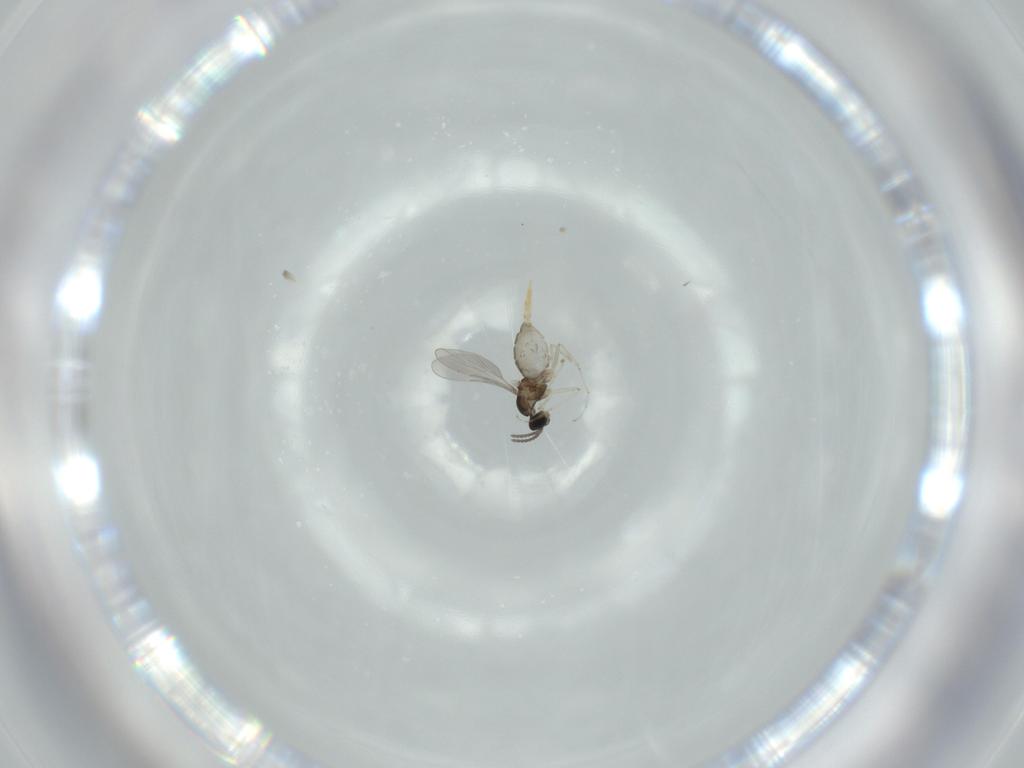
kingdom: Animalia
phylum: Arthropoda
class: Insecta
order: Diptera
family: Cecidomyiidae
